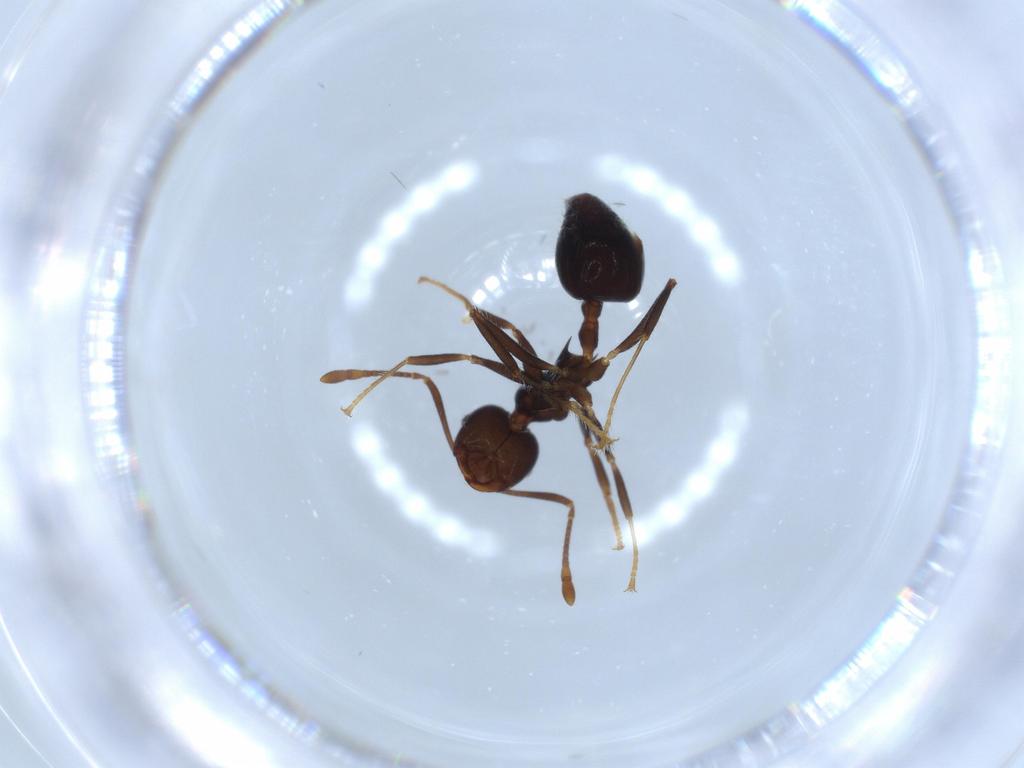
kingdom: Animalia
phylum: Arthropoda
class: Insecta
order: Hymenoptera
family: Formicidae
